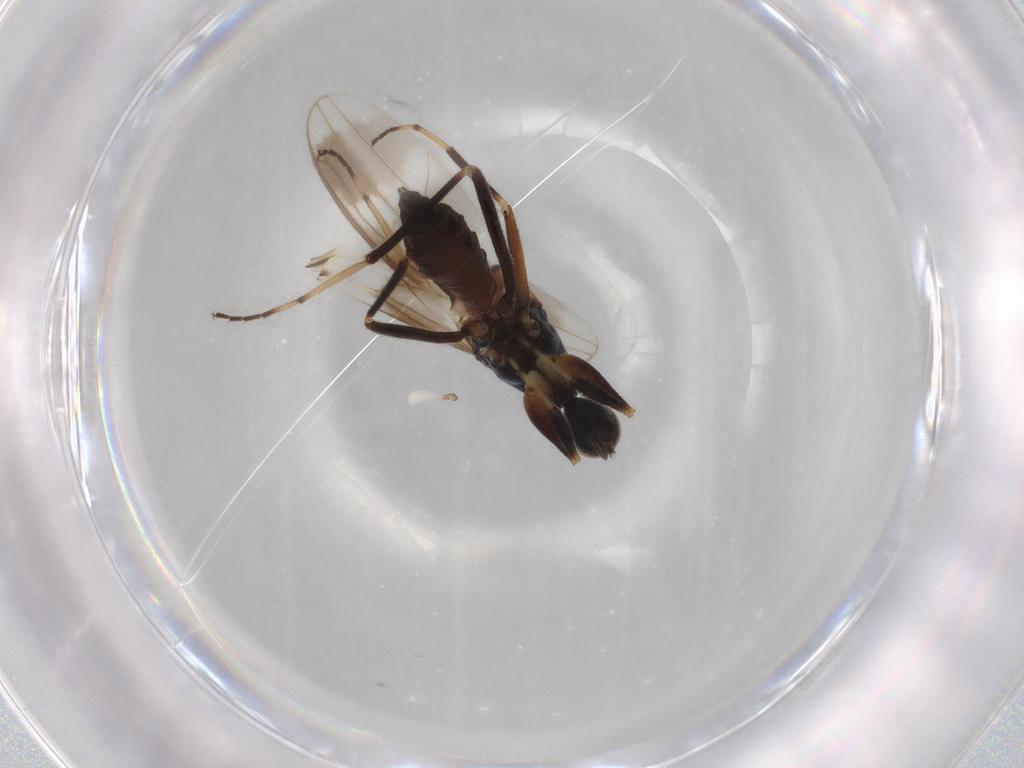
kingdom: Animalia
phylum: Arthropoda
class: Insecta
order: Diptera
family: Hybotidae
